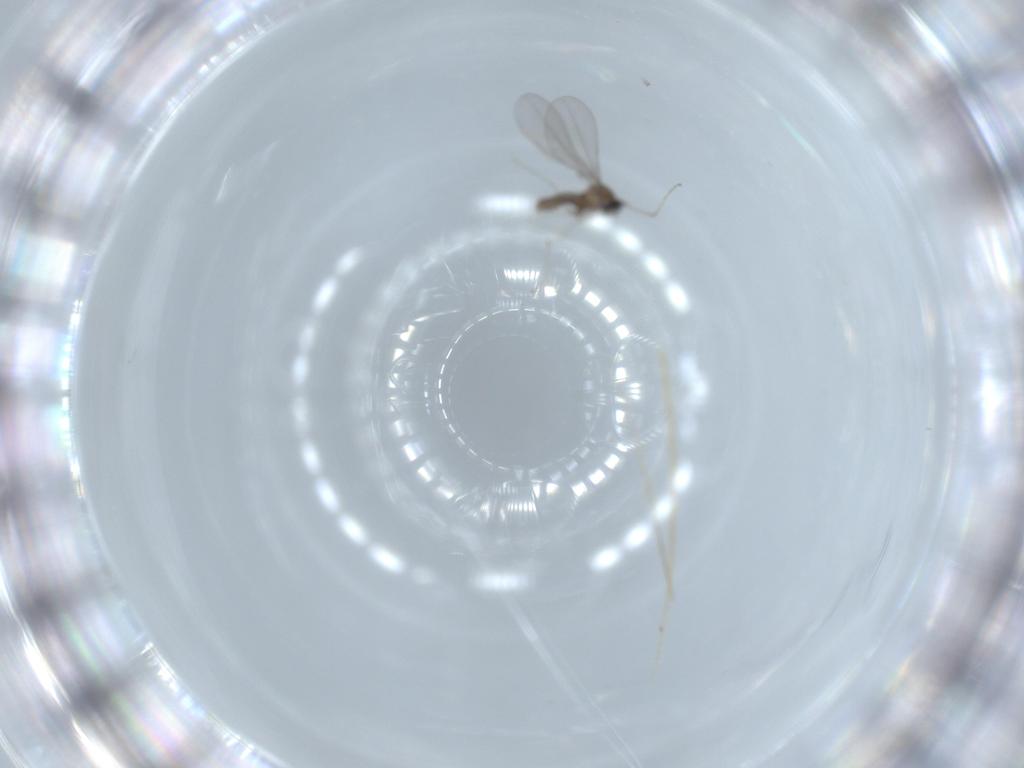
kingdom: Animalia
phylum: Arthropoda
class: Insecta
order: Diptera
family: Cecidomyiidae
